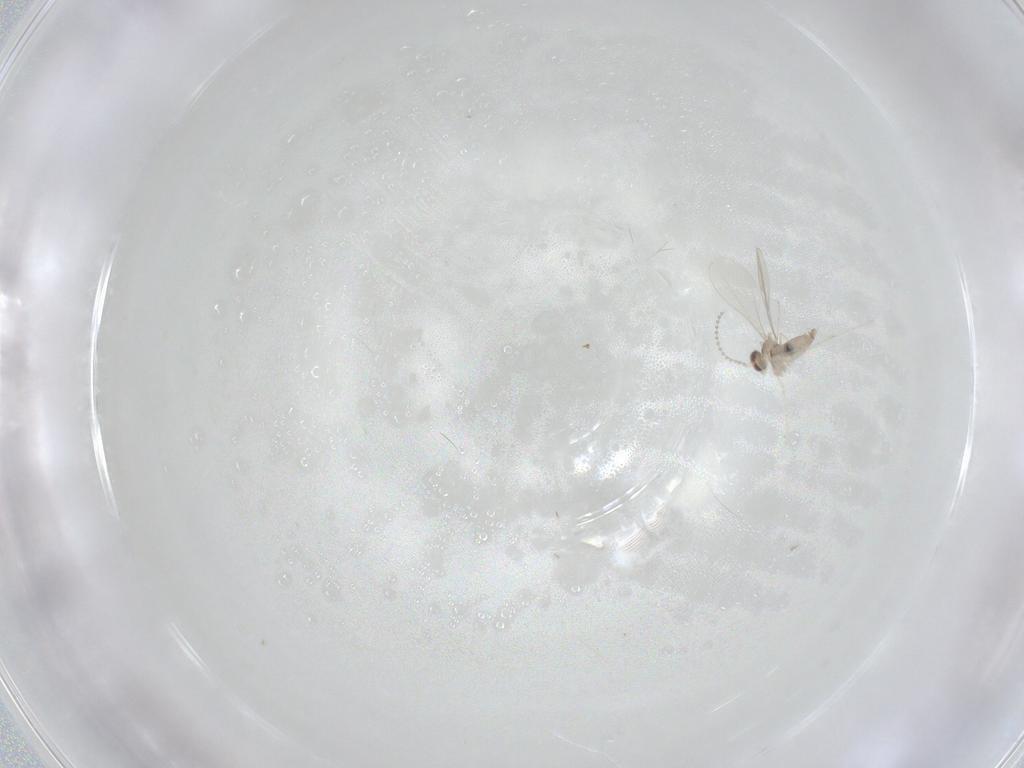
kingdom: Animalia
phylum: Arthropoda
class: Insecta
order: Diptera
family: Cecidomyiidae
